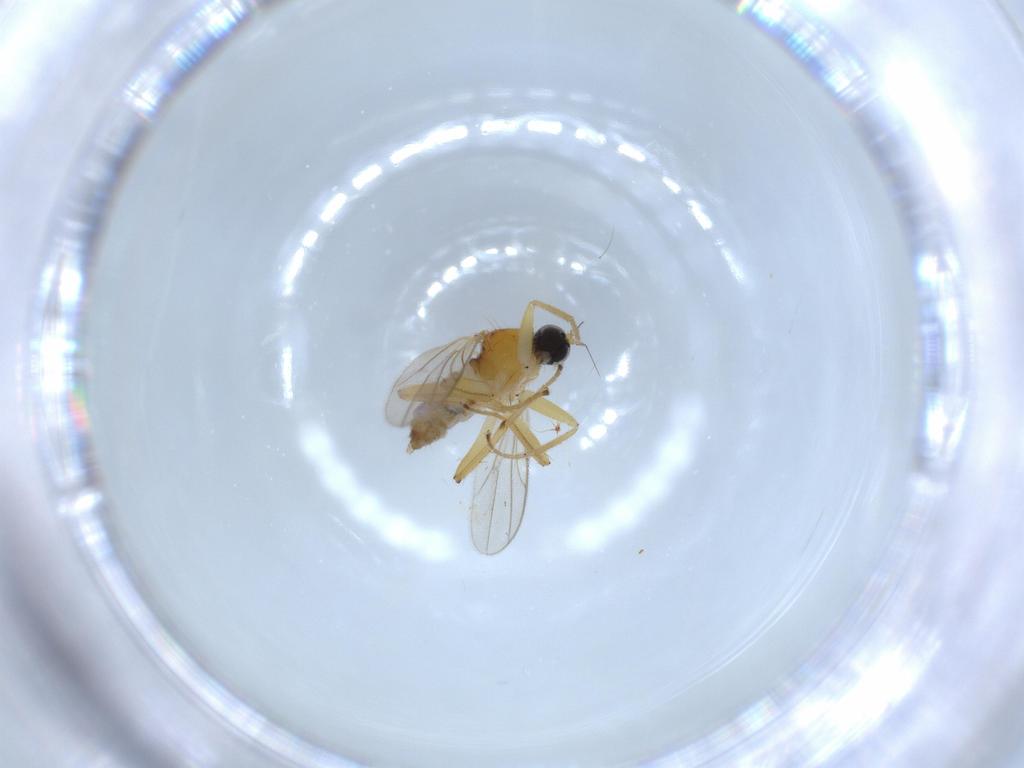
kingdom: Animalia
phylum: Arthropoda
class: Insecta
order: Diptera
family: Hybotidae
